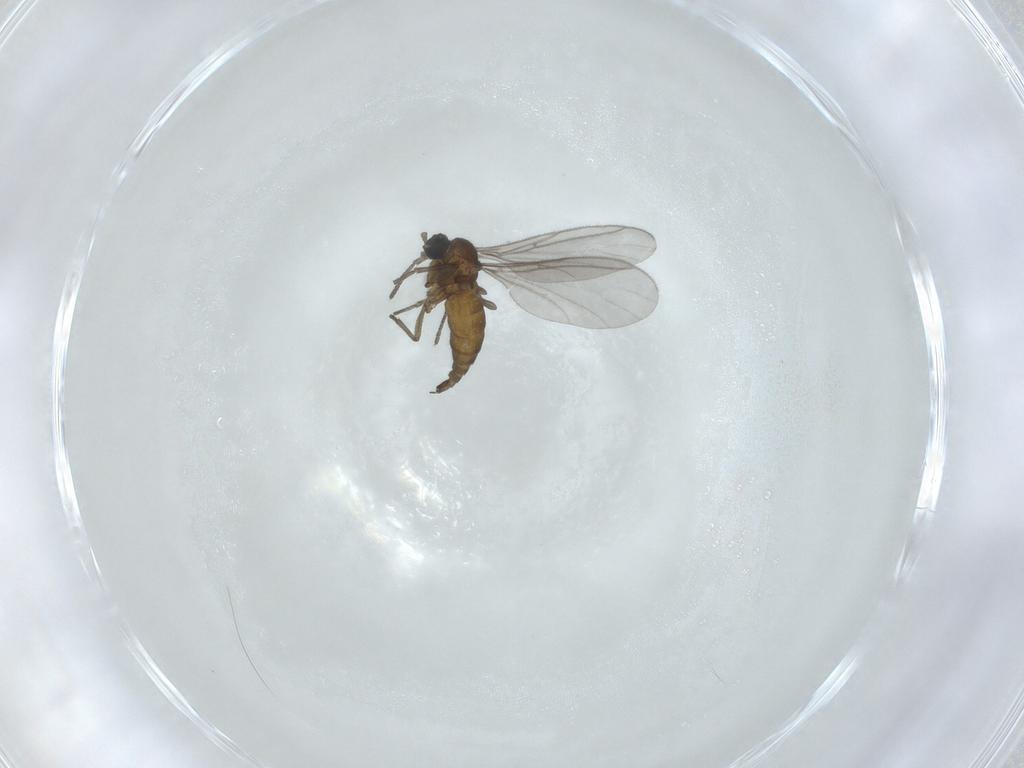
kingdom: Animalia
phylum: Arthropoda
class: Insecta
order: Diptera
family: Sciaridae
